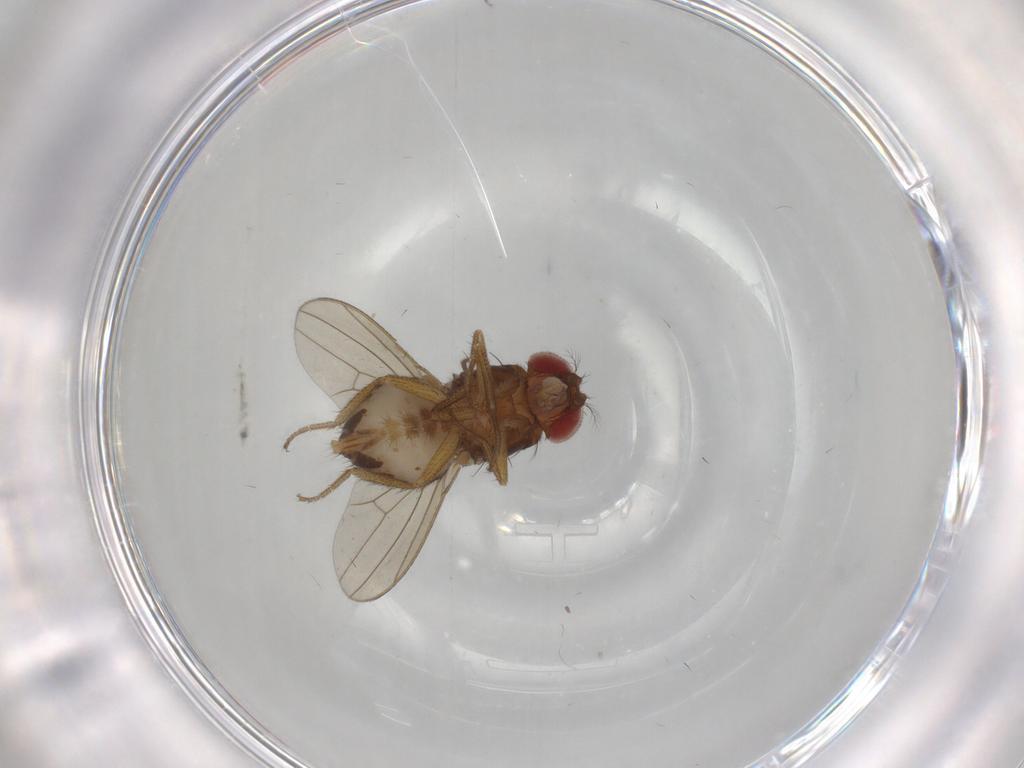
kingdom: Animalia
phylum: Arthropoda
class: Insecta
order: Diptera
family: Drosophilidae
